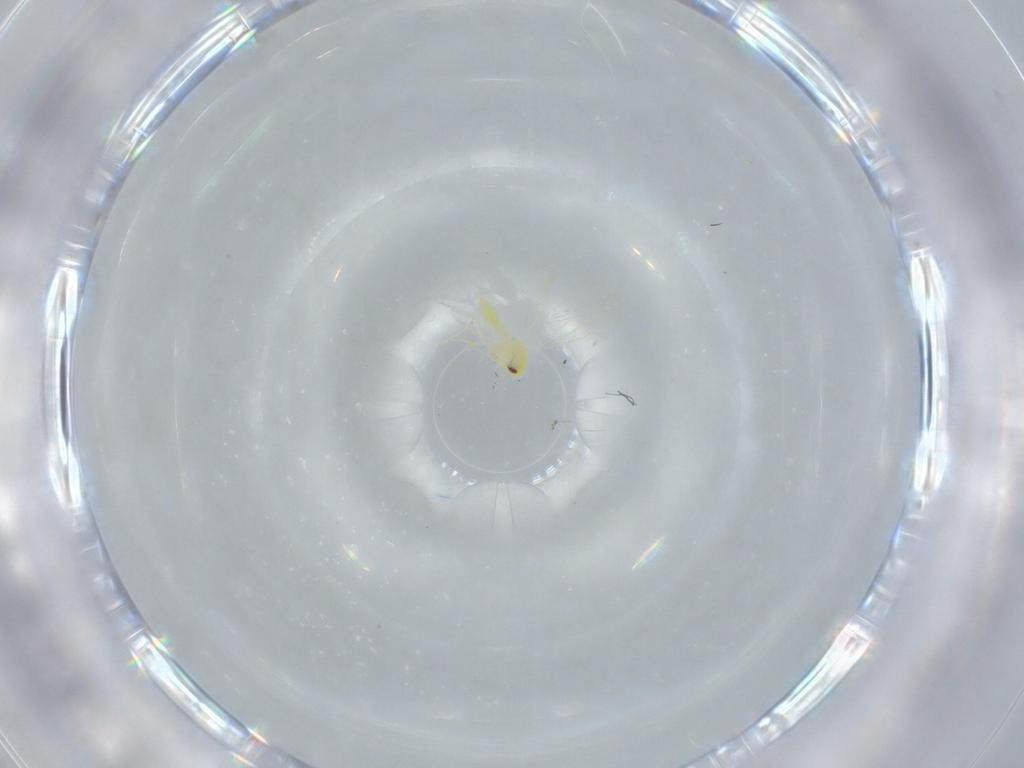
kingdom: Animalia
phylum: Arthropoda
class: Insecta
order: Hemiptera
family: Aleyrodidae
